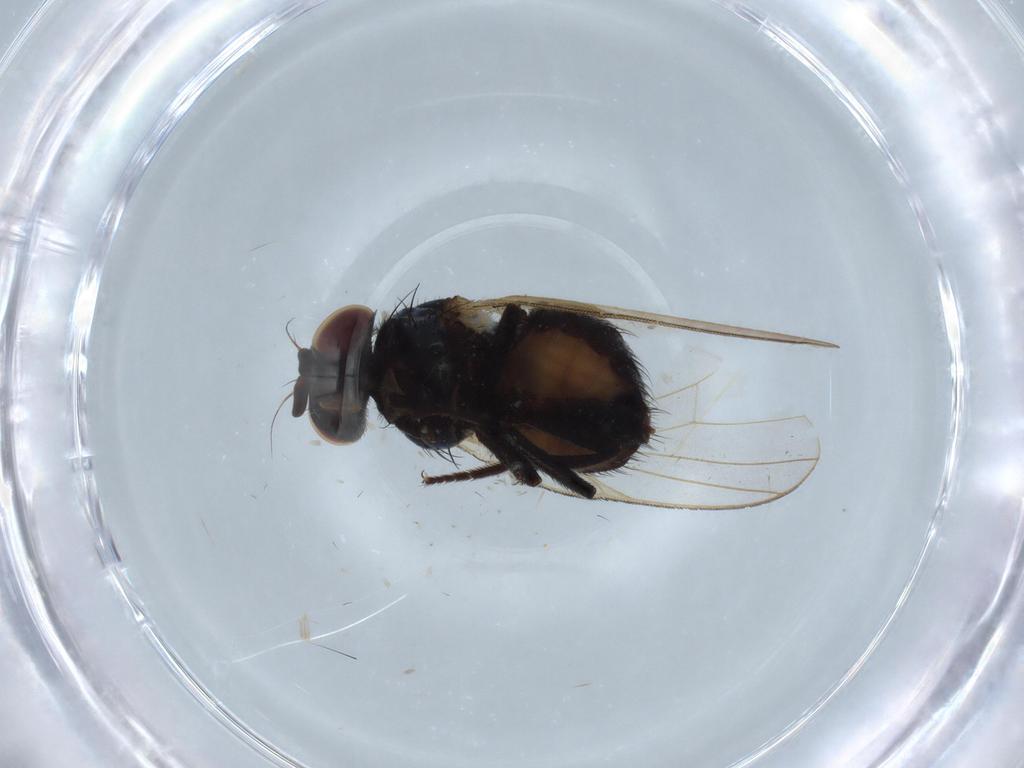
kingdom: Animalia
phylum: Arthropoda
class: Insecta
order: Diptera
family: Lonchaeidae
